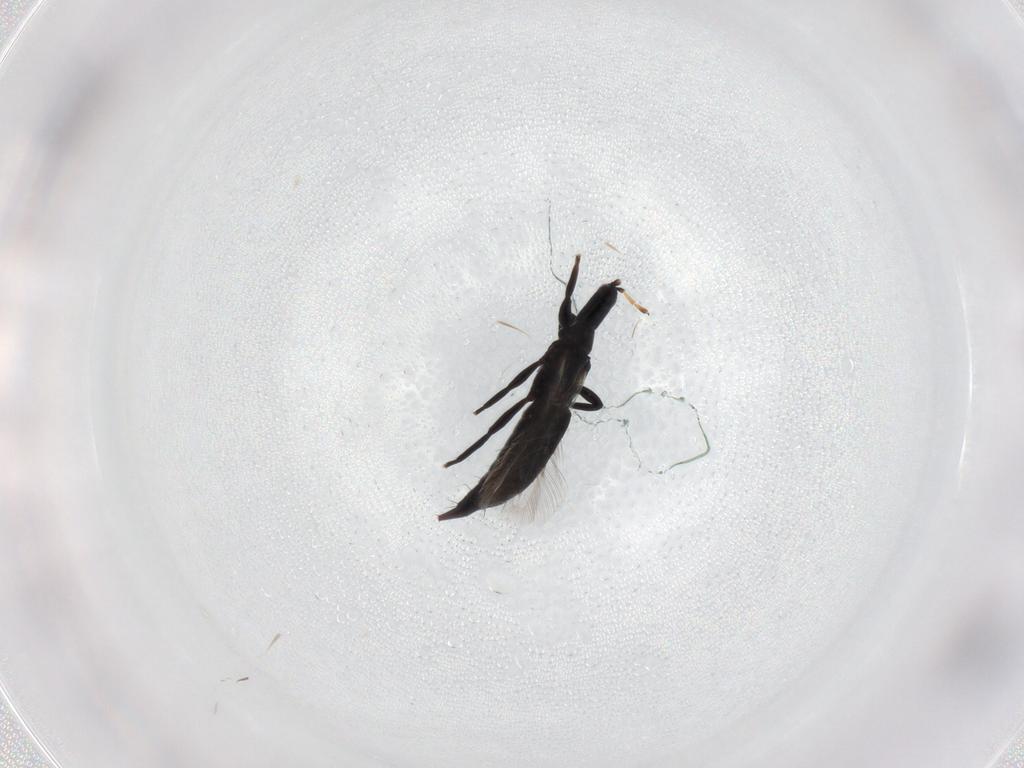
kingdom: Animalia
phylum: Arthropoda
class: Insecta
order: Thysanoptera
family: Phlaeothripidae
